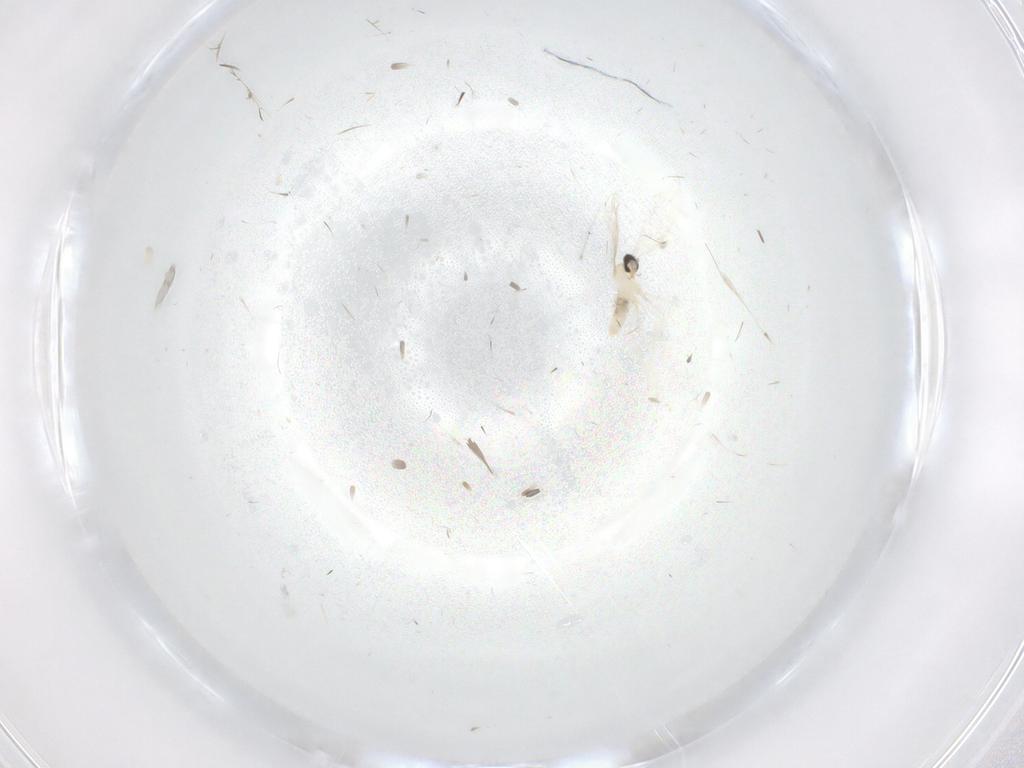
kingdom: Animalia
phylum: Arthropoda
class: Insecta
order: Diptera
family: Cecidomyiidae
